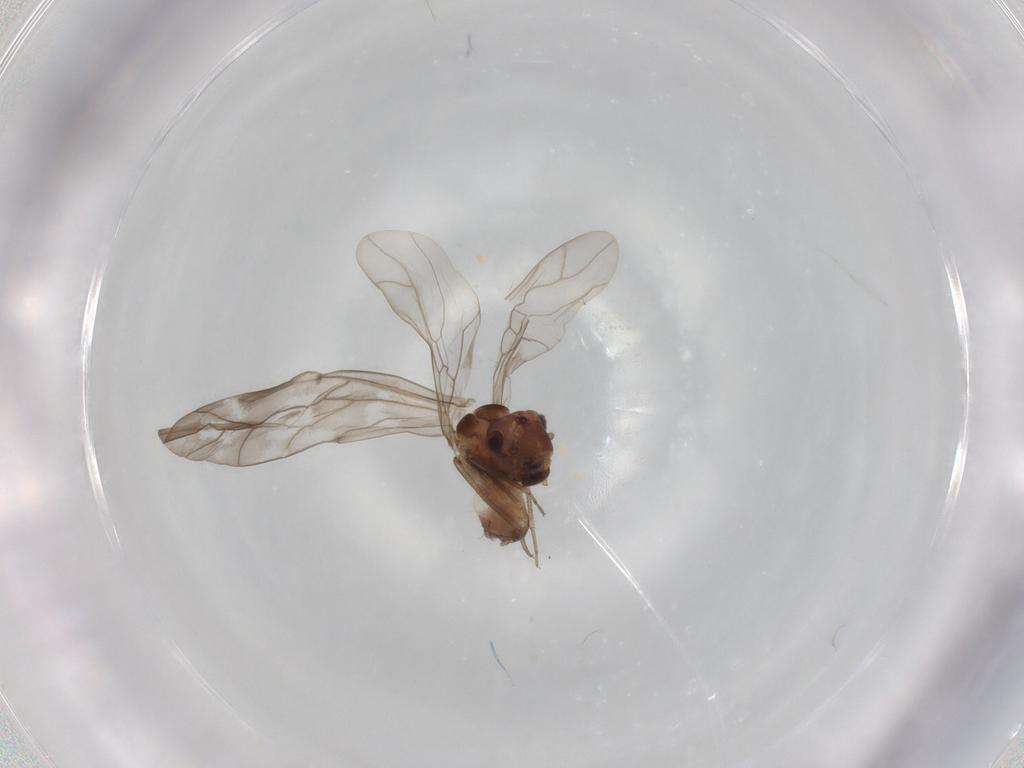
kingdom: Animalia
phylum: Arthropoda
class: Insecta
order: Psocodea
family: Peripsocidae
